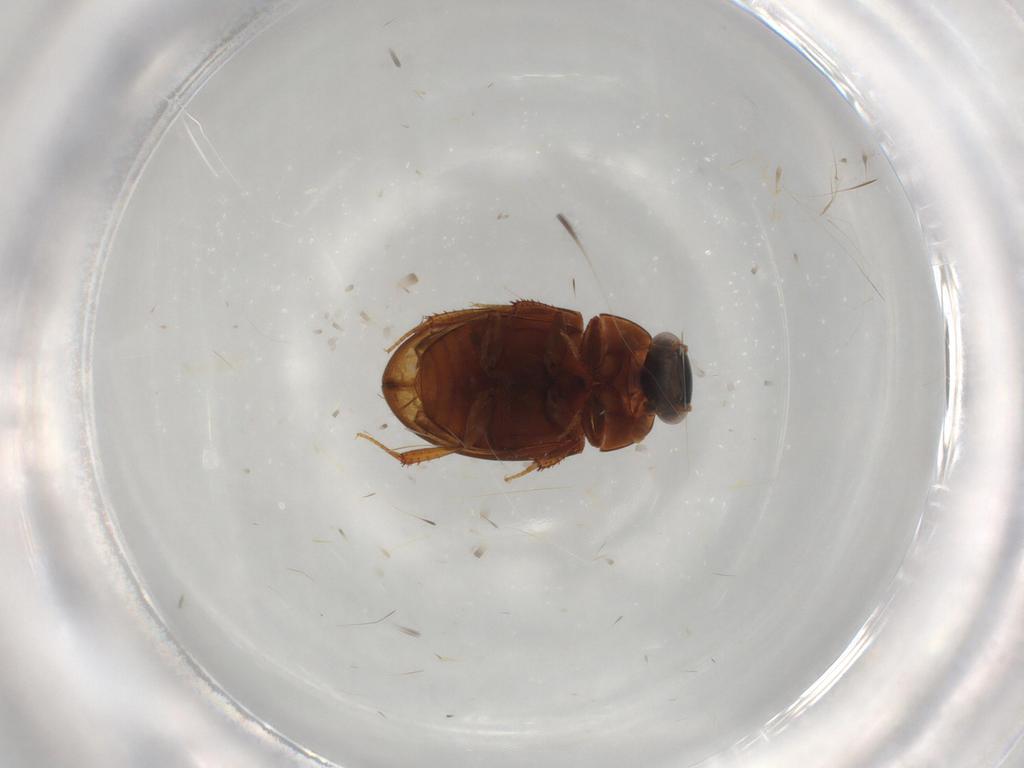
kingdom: Animalia
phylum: Arthropoda
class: Insecta
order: Coleoptera
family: Hydrophilidae
